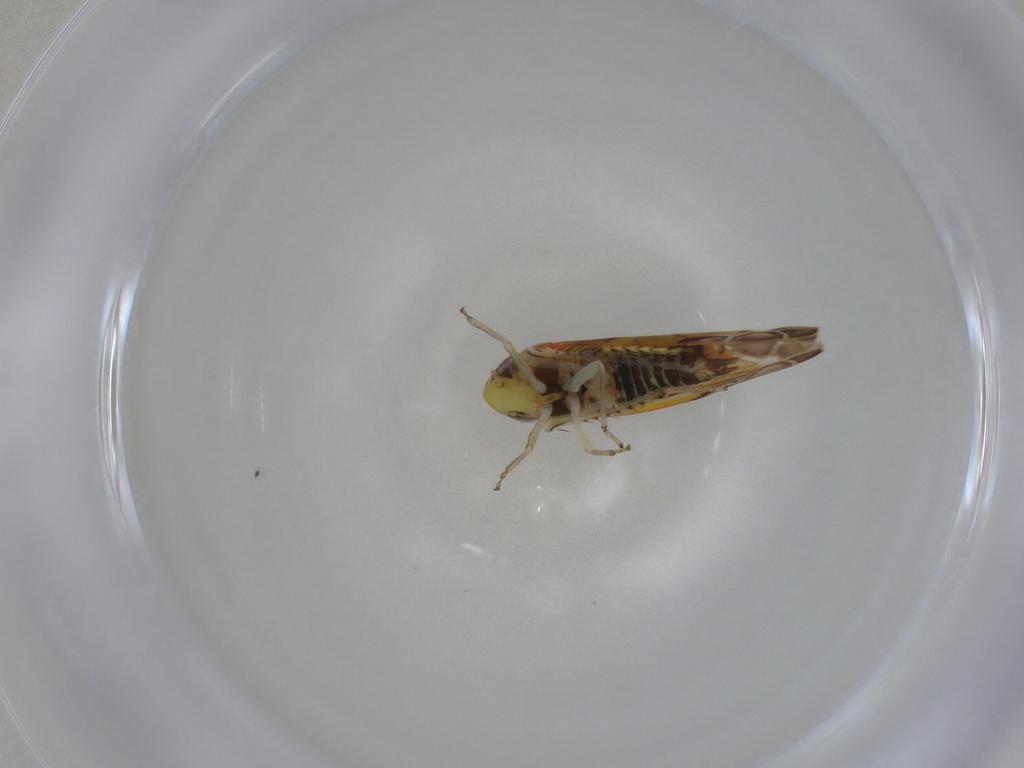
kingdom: Animalia
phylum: Arthropoda
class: Insecta
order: Hemiptera
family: Cicadellidae
